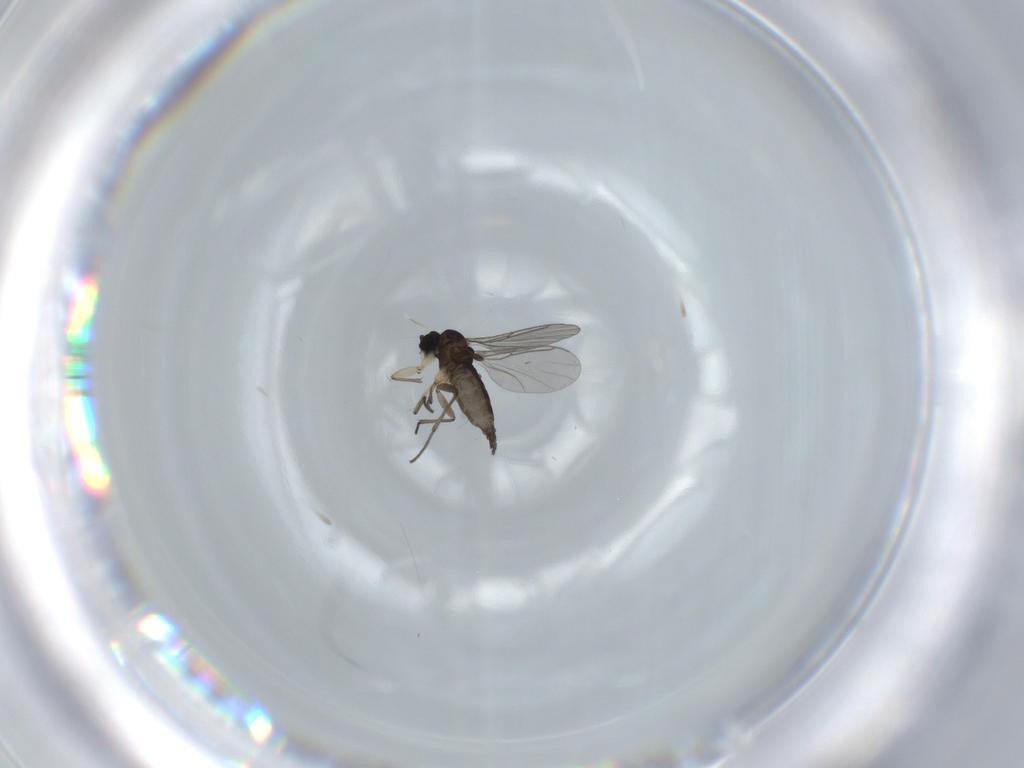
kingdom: Animalia
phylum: Arthropoda
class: Insecta
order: Diptera
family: Sciaridae
